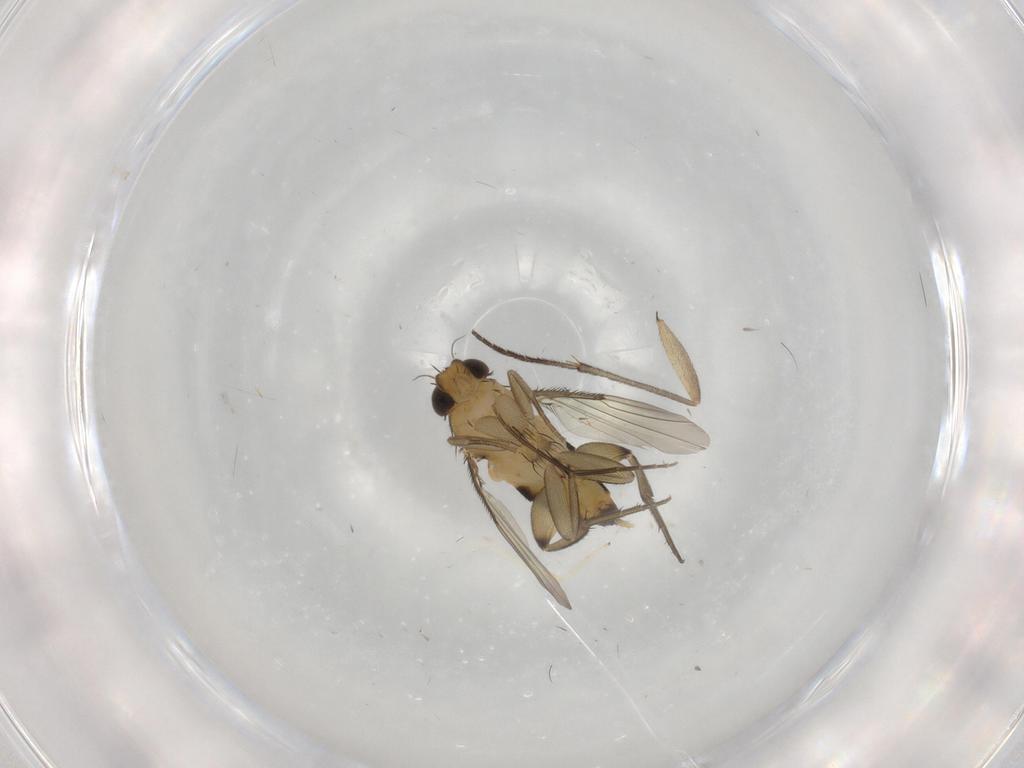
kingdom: Animalia
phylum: Arthropoda
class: Insecta
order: Diptera
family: Phoridae
